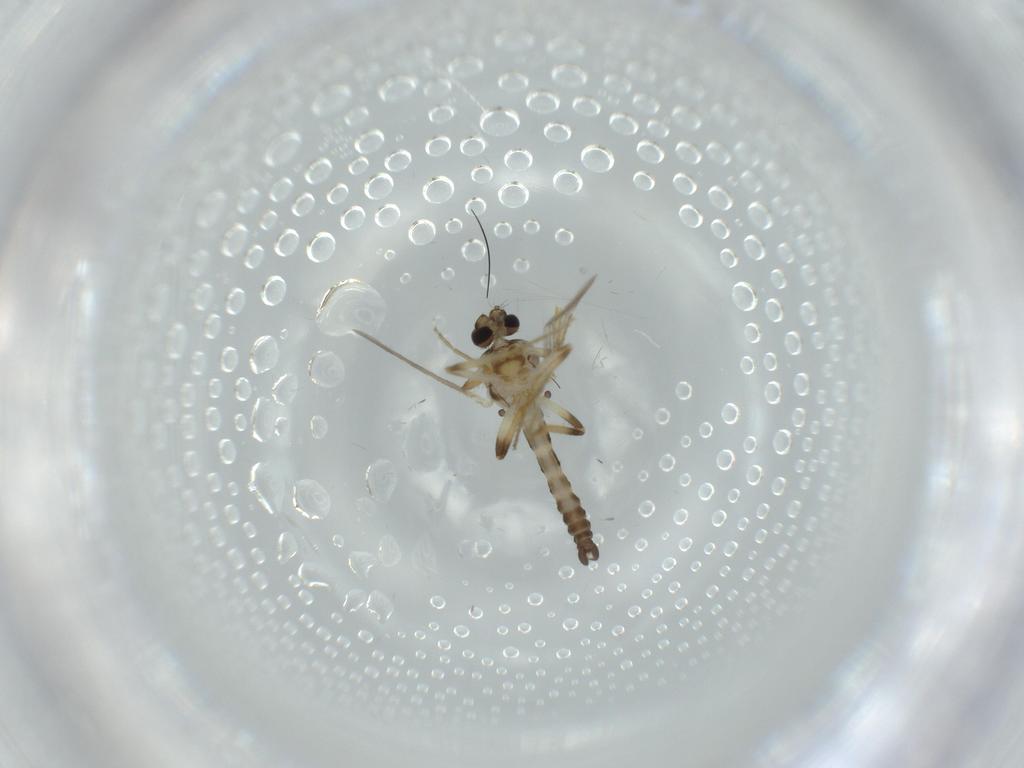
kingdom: Animalia
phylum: Arthropoda
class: Insecta
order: Diptera
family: Ceratopogonidae
